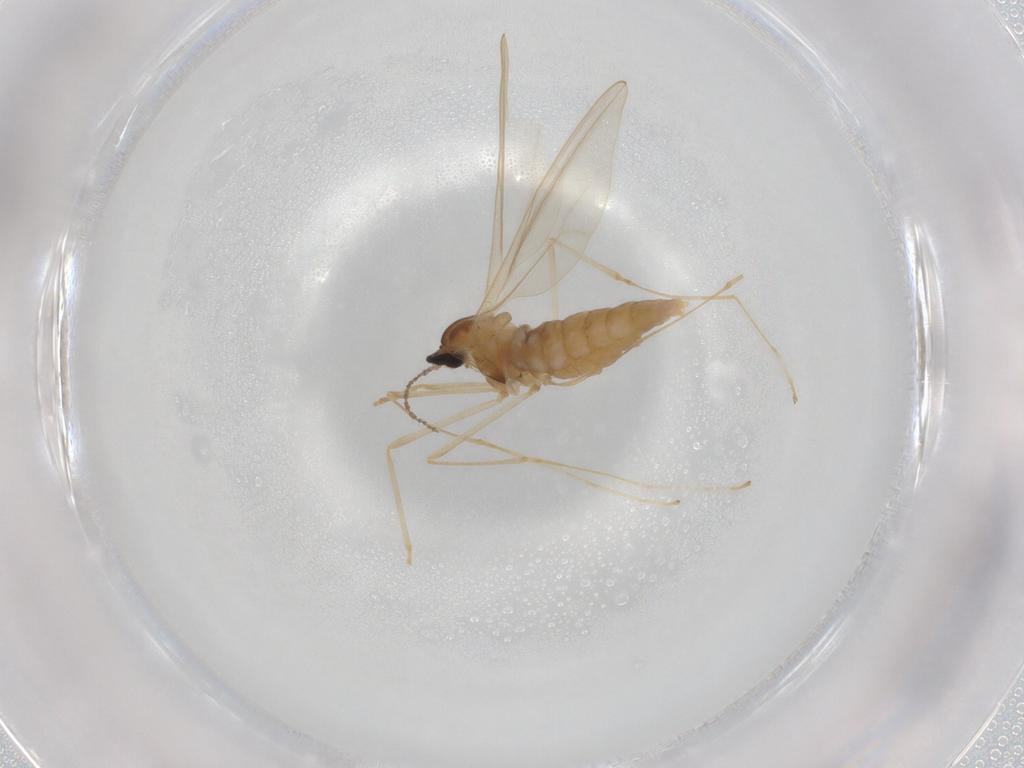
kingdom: Animalia
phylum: Arthropoda
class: Insecta
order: Diptera
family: Cecidomyiidae
